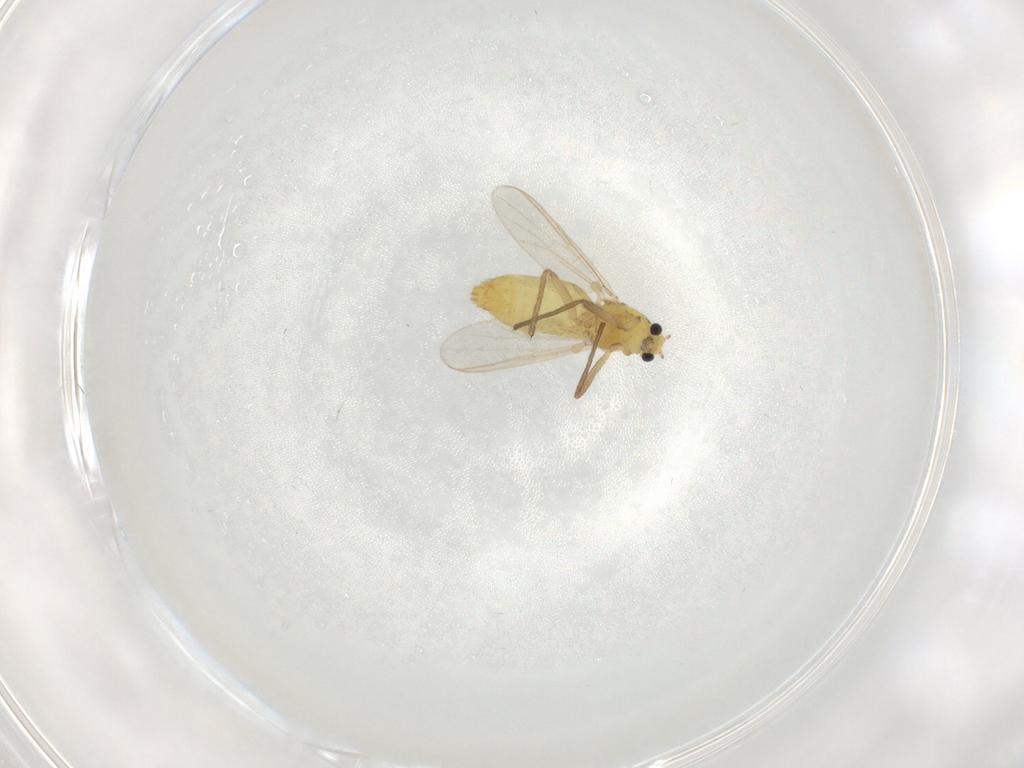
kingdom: Animalia
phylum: Arthropoda
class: Insecta
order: Diptera
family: Chironomidae
